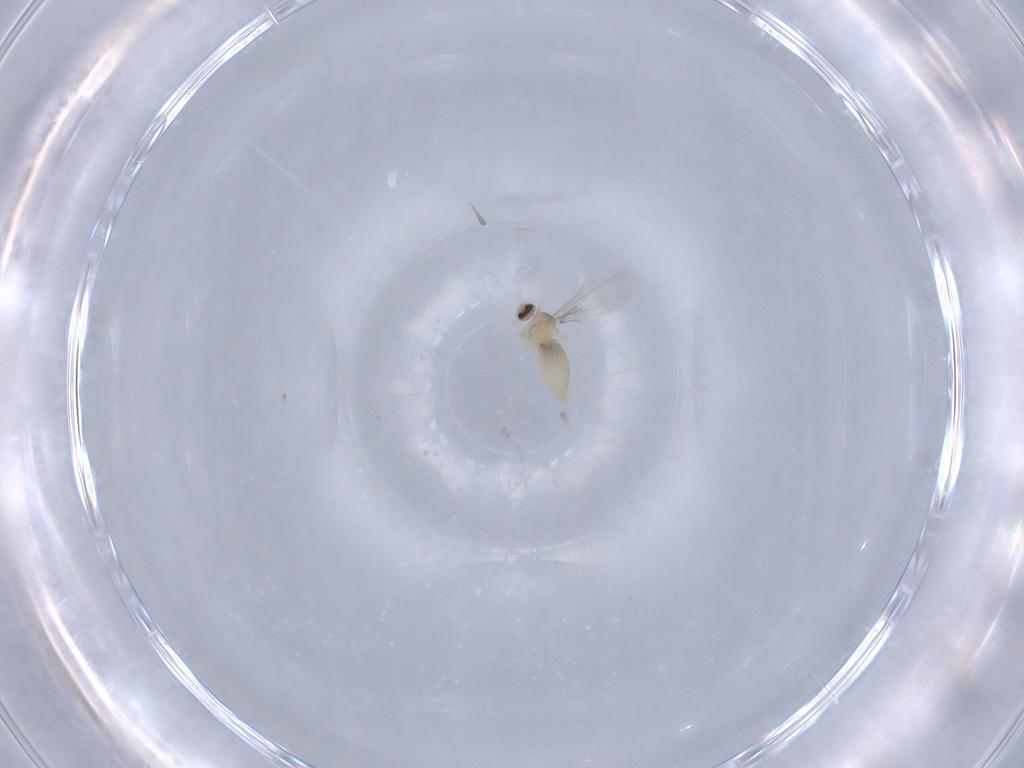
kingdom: Animalia
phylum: Arthropoda
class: Insecta
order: Diptera
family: Cecidomyiidae
